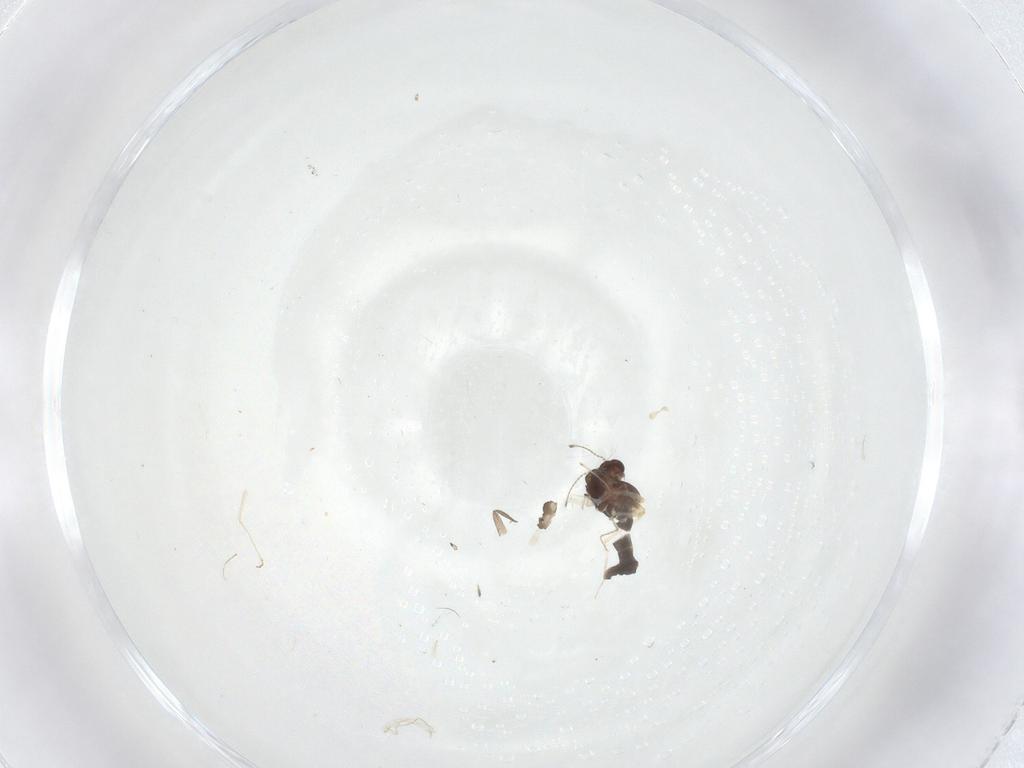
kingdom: Animalia
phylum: Arthropoda
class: Insecta
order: Diptera
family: Chironomidae
